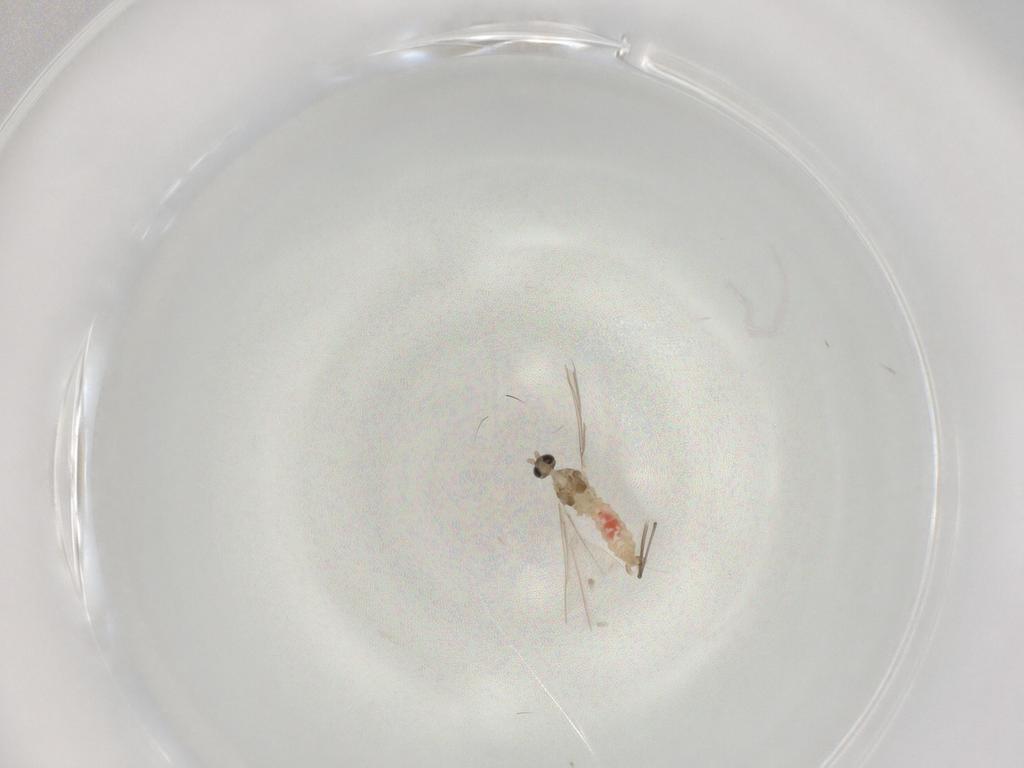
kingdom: Animalia
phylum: Arthropoda
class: Insecta
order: Diptera
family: Cecidomyiidae
